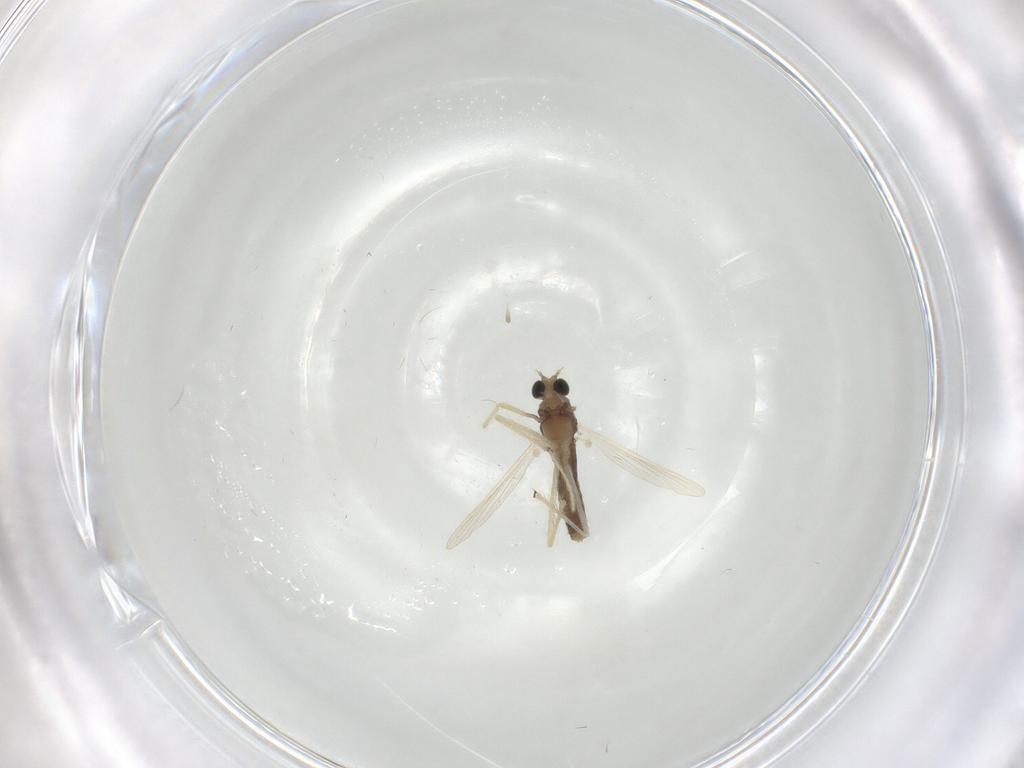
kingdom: Animalia
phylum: Arthropoda
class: Insecta
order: Diptera
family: Chironomidae
